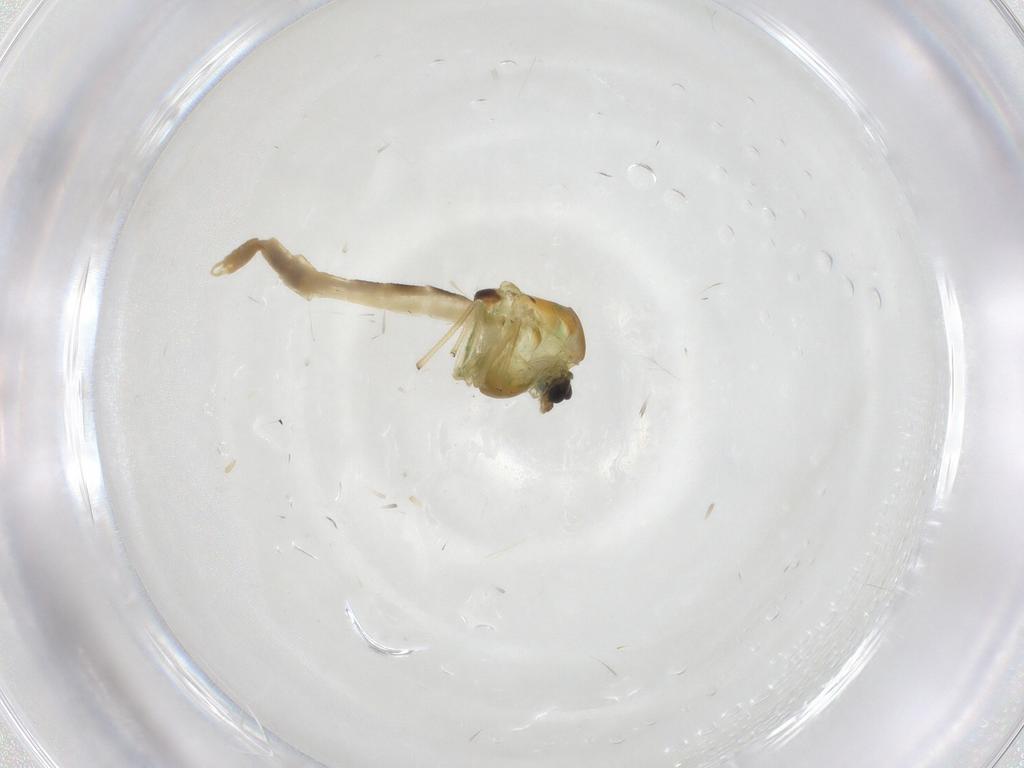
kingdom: Animalia
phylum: Arthropoda
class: Insecta
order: Diptera
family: Chironomidae
